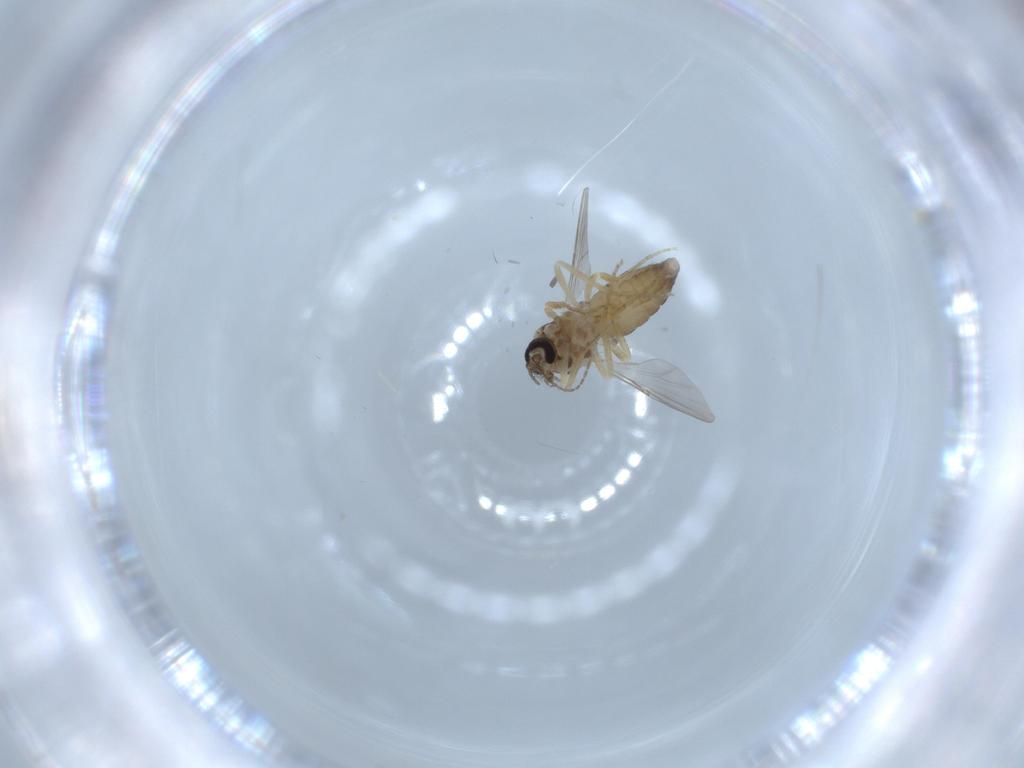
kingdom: Animalia
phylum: Arthropoda
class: Insecta
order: Diptera
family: Ceratopogonidae
